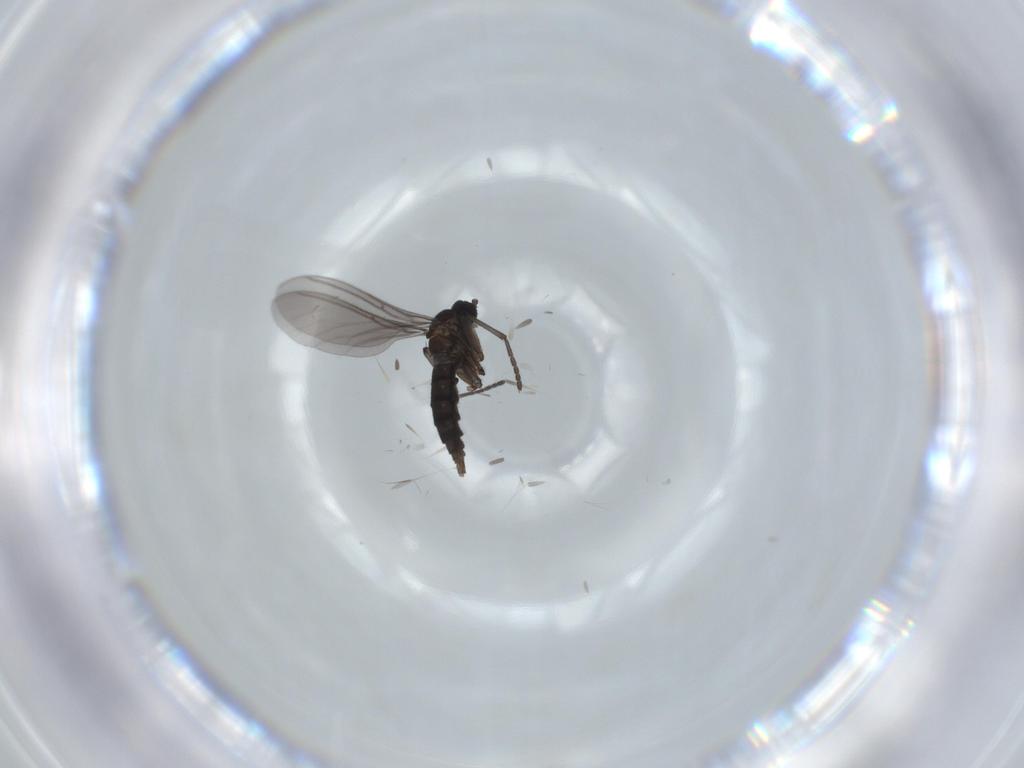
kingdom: Animalia
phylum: Arthropoda
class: Insecta
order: Diptera
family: Sciaridae
